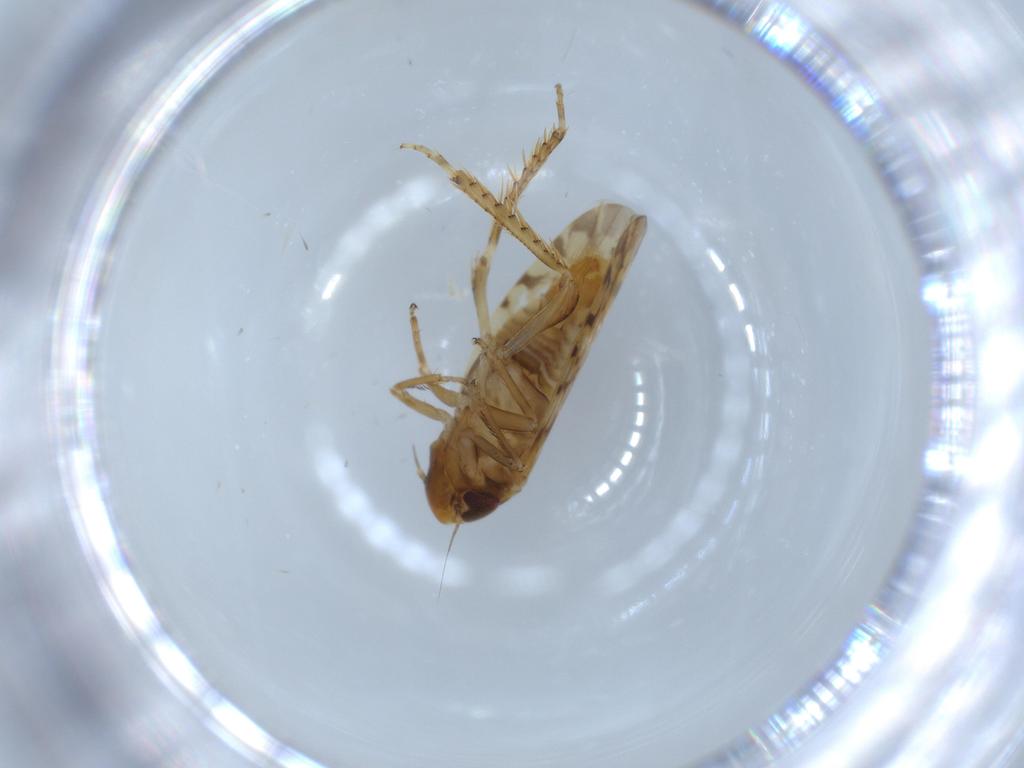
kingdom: Animalia
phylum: Arthropoda
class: Insecta
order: Hemiptera
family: Cicadellidae
